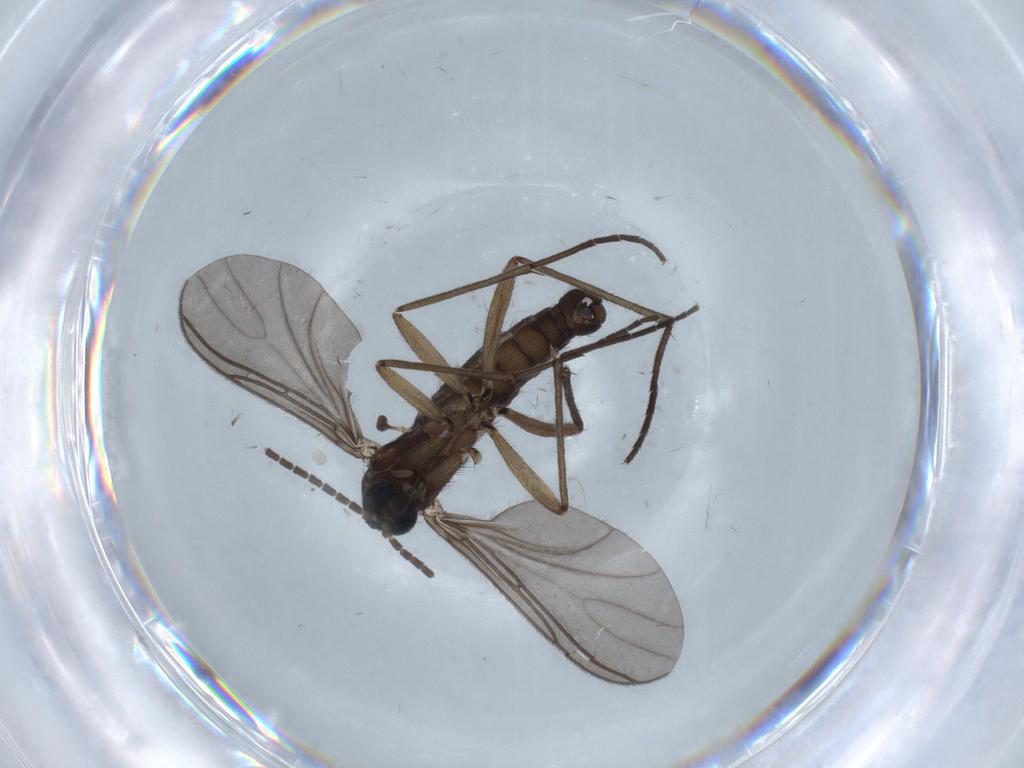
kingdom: Animalia
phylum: Arthropoda
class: Insecta
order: Diptera
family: Sciaridae
